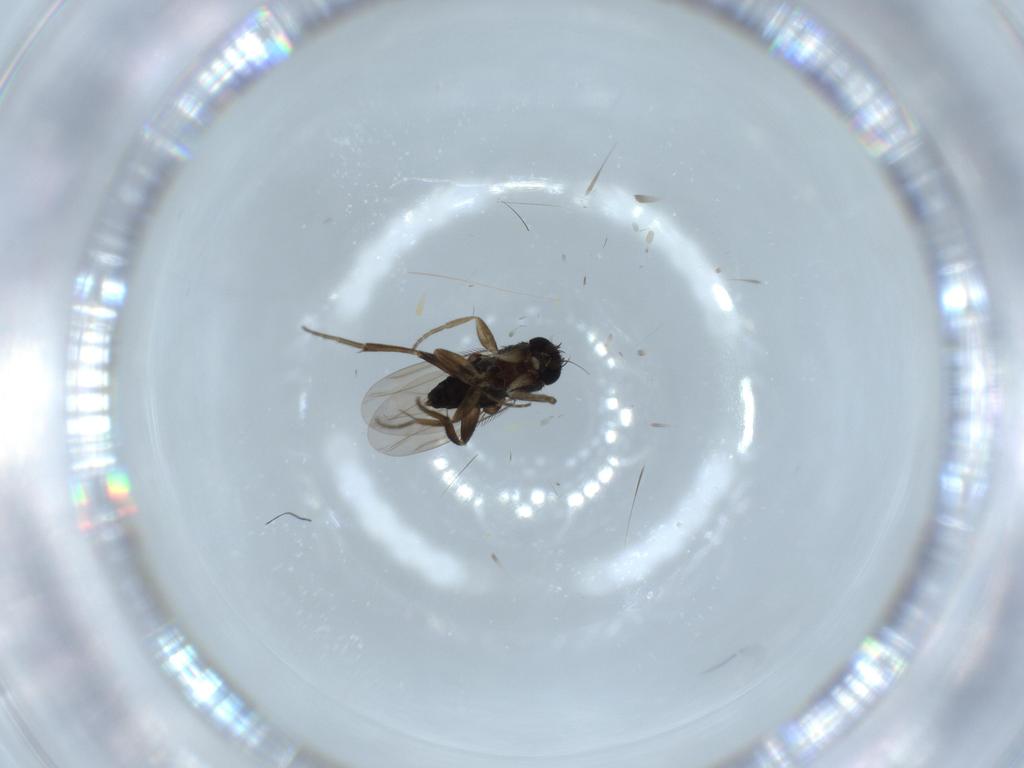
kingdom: Animalia
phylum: Arthropoda
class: Insecta
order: Diptera
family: Phoridae
